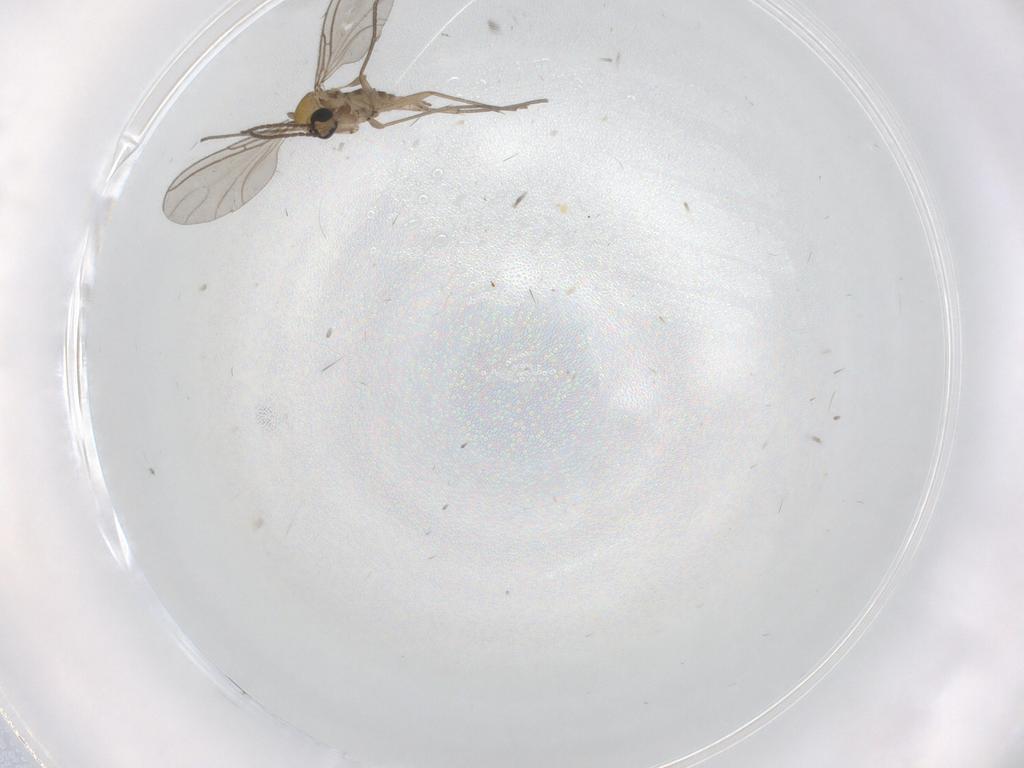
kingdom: Animalia
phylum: Arthropoda
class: Insecta
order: Diptera
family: Sciaridae
